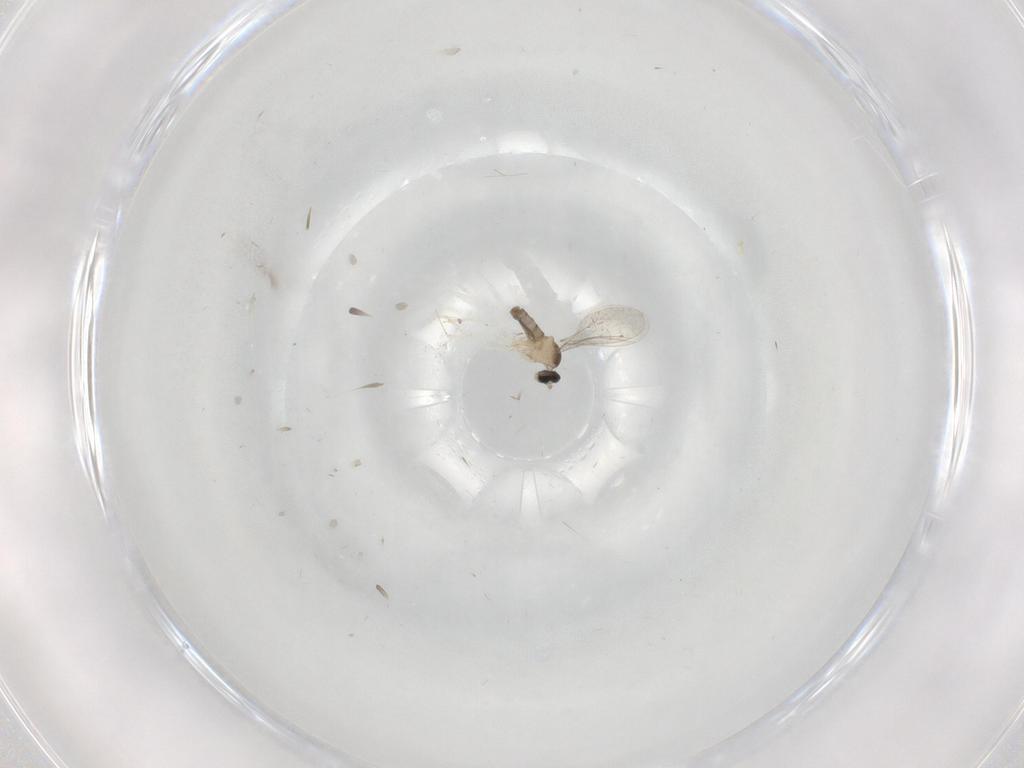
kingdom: Animalia
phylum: Arthropoda
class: Insecta
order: Diptera
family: Cecidomyiidae
